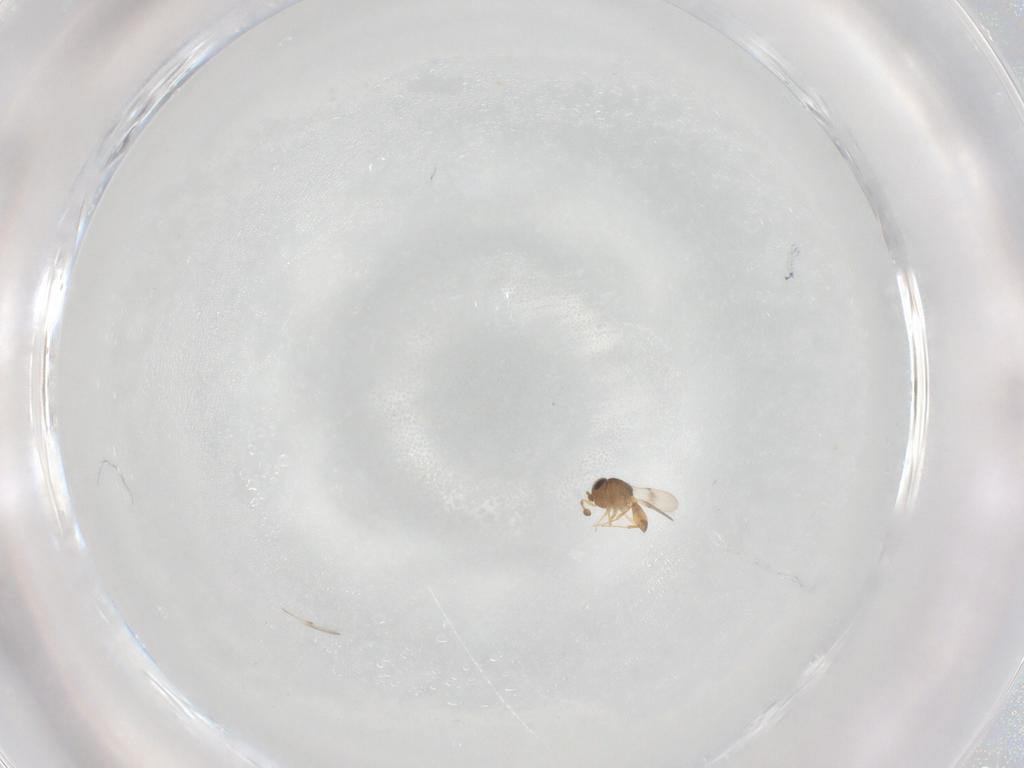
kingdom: Animalia
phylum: Arthropoda
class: Insecta
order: Hymenoptera
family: Scelionidae
